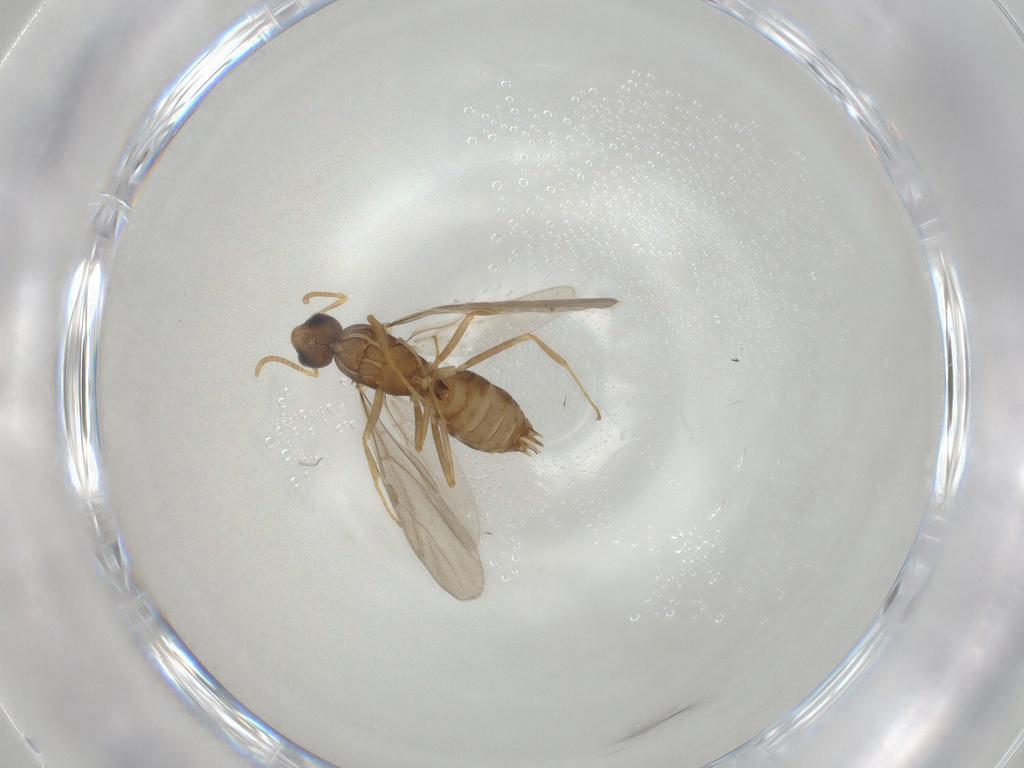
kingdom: Animalia
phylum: Arthropoda
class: Insecta
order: Hymenoptera
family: Formicidae
